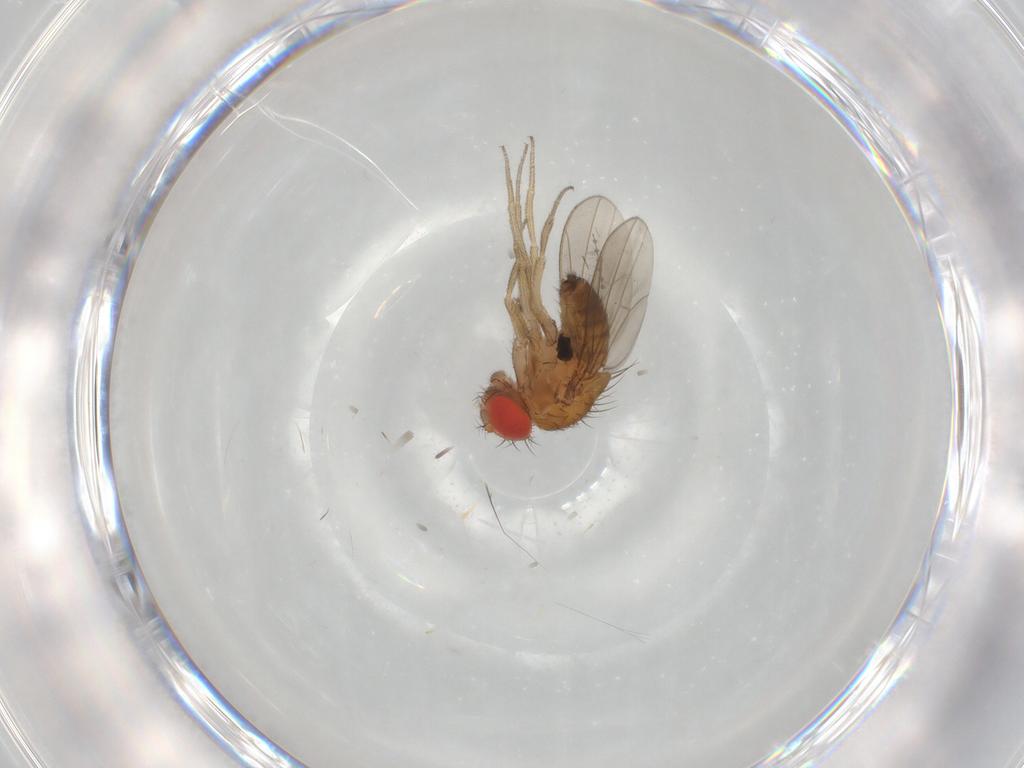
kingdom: Animalia
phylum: Arthropoda
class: Insecta
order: Diptera
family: Drosophilidae
